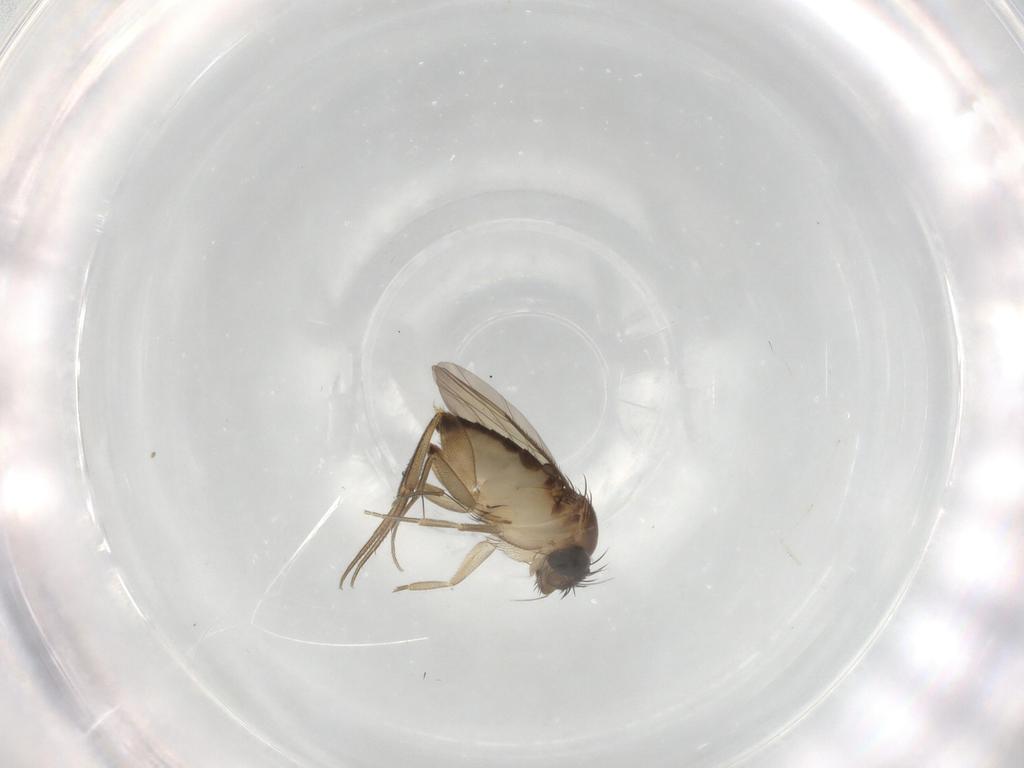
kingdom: Animalia
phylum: Arthropoda
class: Insecta
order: Diptera
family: Phoridae
